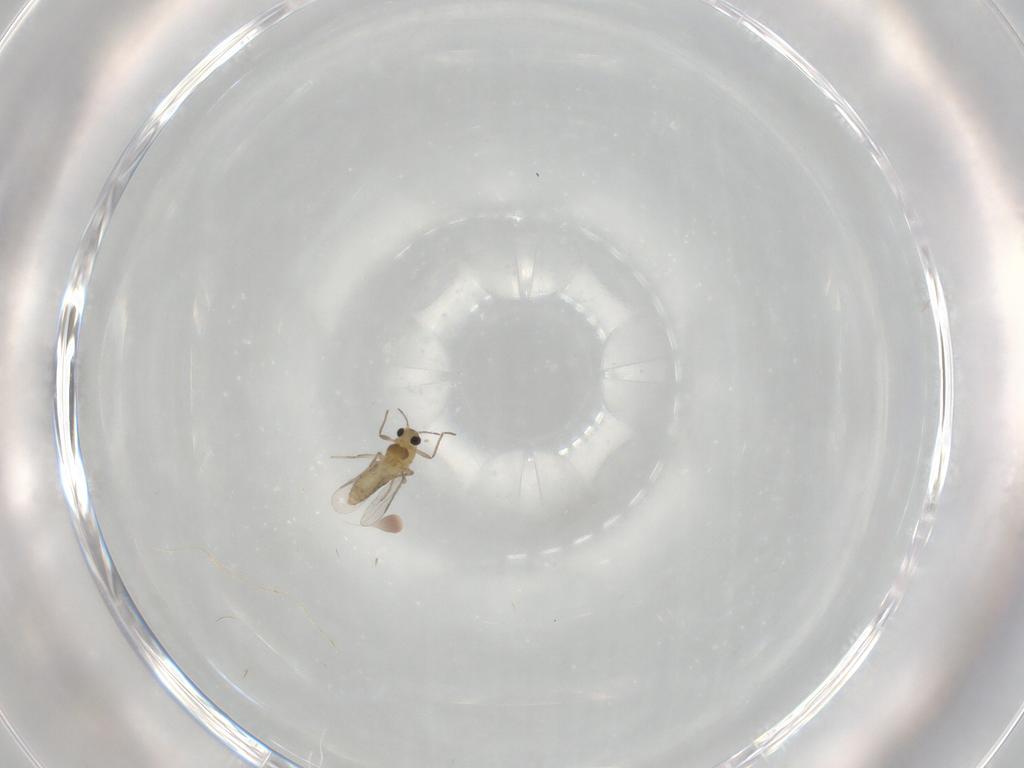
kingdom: Animalia
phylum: Arthropoda
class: Insecta
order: Diptera
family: Chironomidae
